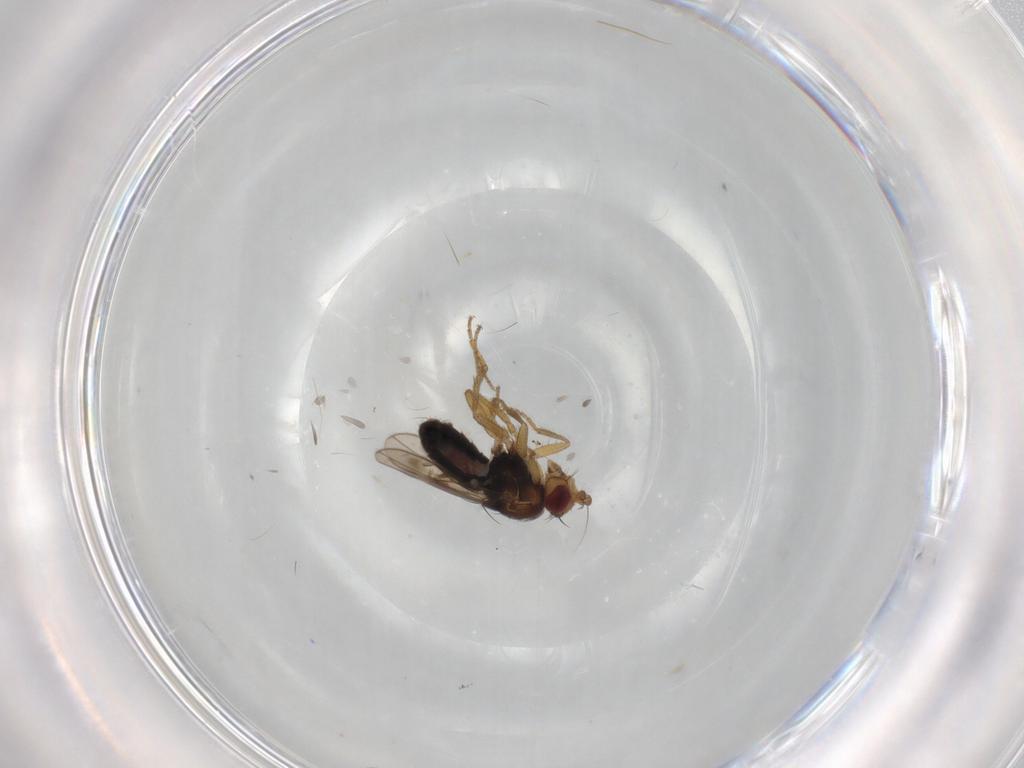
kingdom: Animalia
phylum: Arthropoda
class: Insecta
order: Diptera
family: Sphaeroceridae
